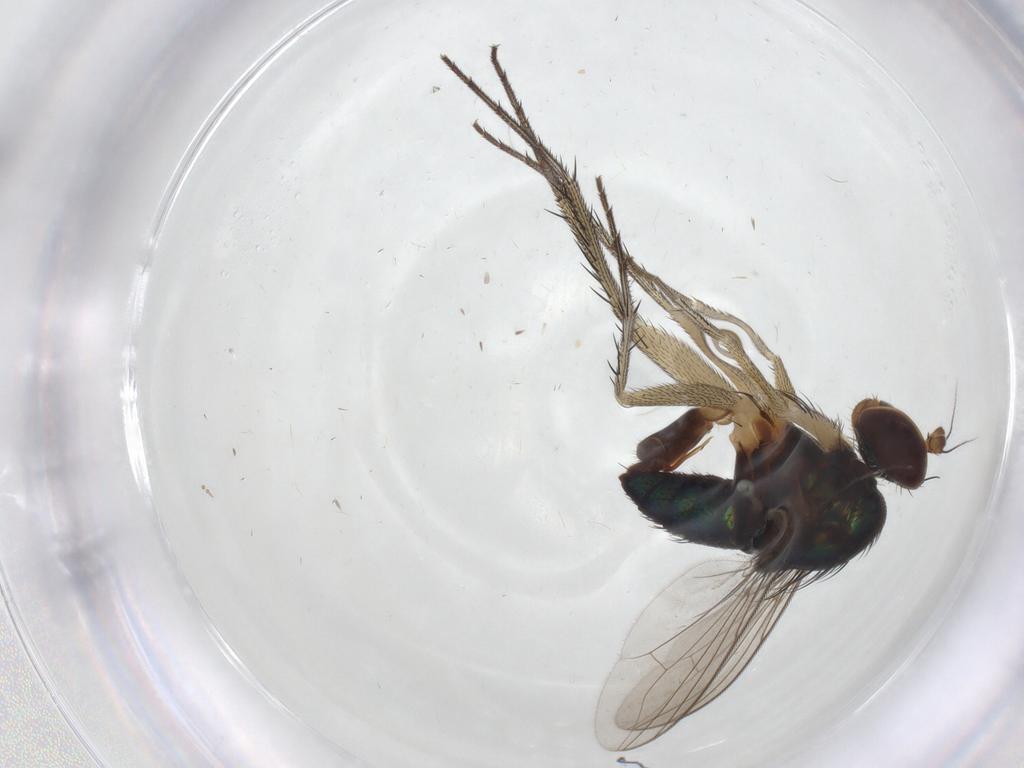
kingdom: Animalia
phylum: Arthropoda
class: Insecta
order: Diptera
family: Dolichopodidae
